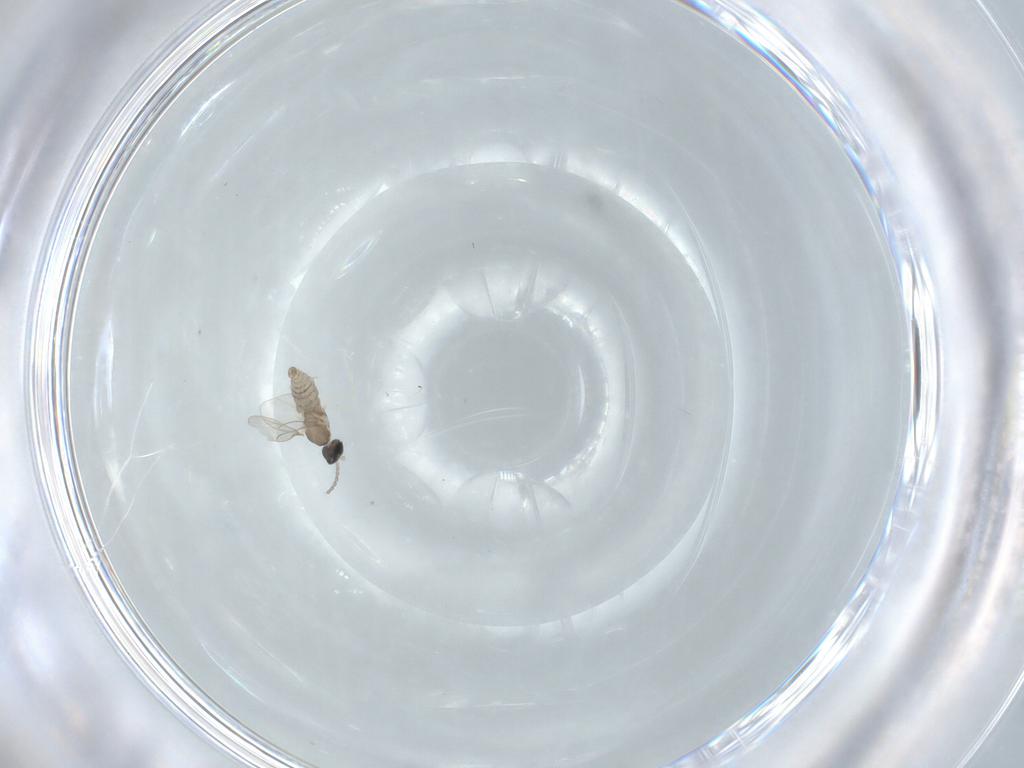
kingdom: Animalia
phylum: Arthropoda
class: Insecta
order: Diptera
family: Cecidomyiidae
